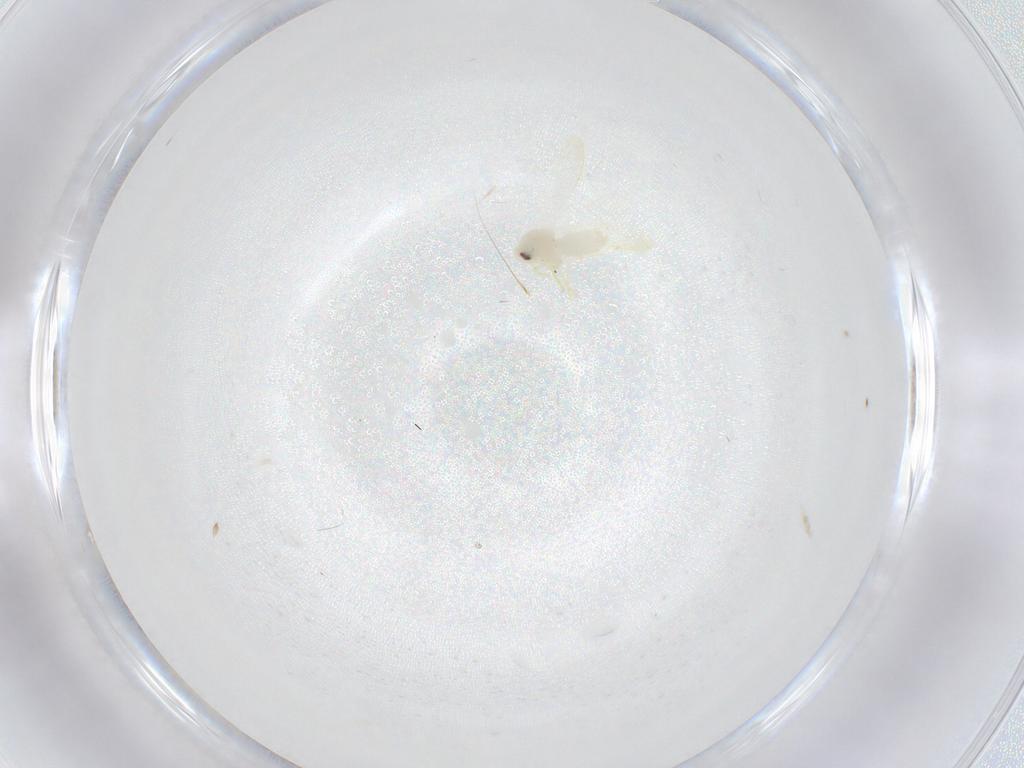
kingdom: Animalia
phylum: Arthropoda
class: Insecta
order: Hemiptera
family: Aleyrodidae
